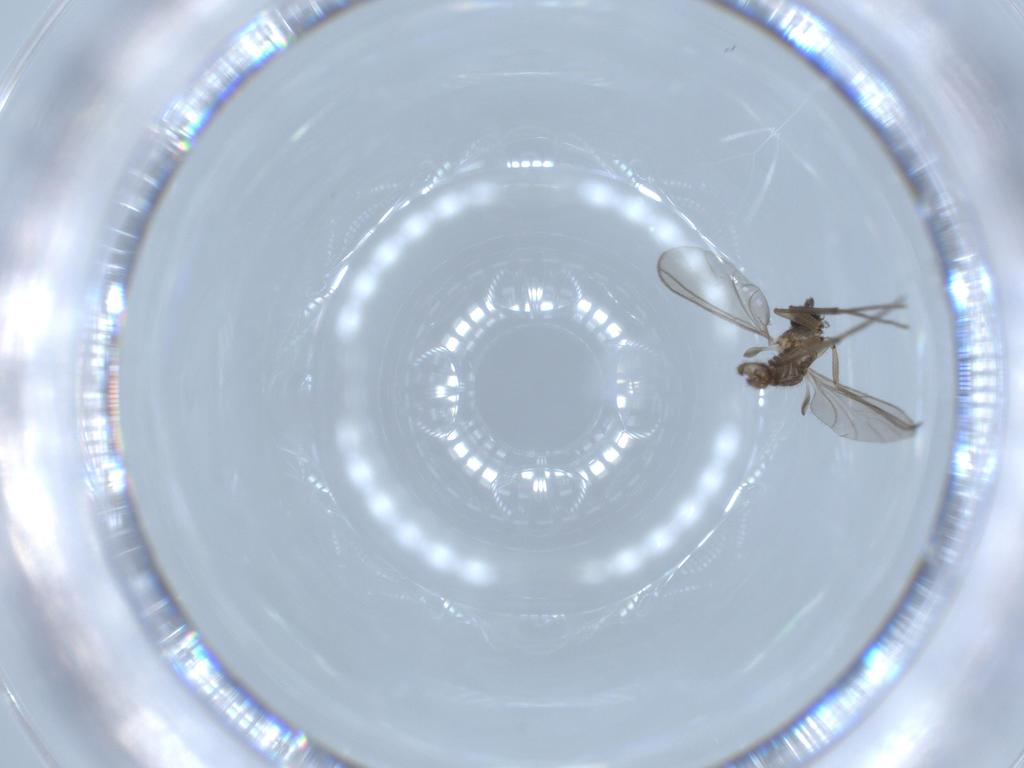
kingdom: Animalia
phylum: Arthropoda
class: Insecta
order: Diptera
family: Sciaridae
